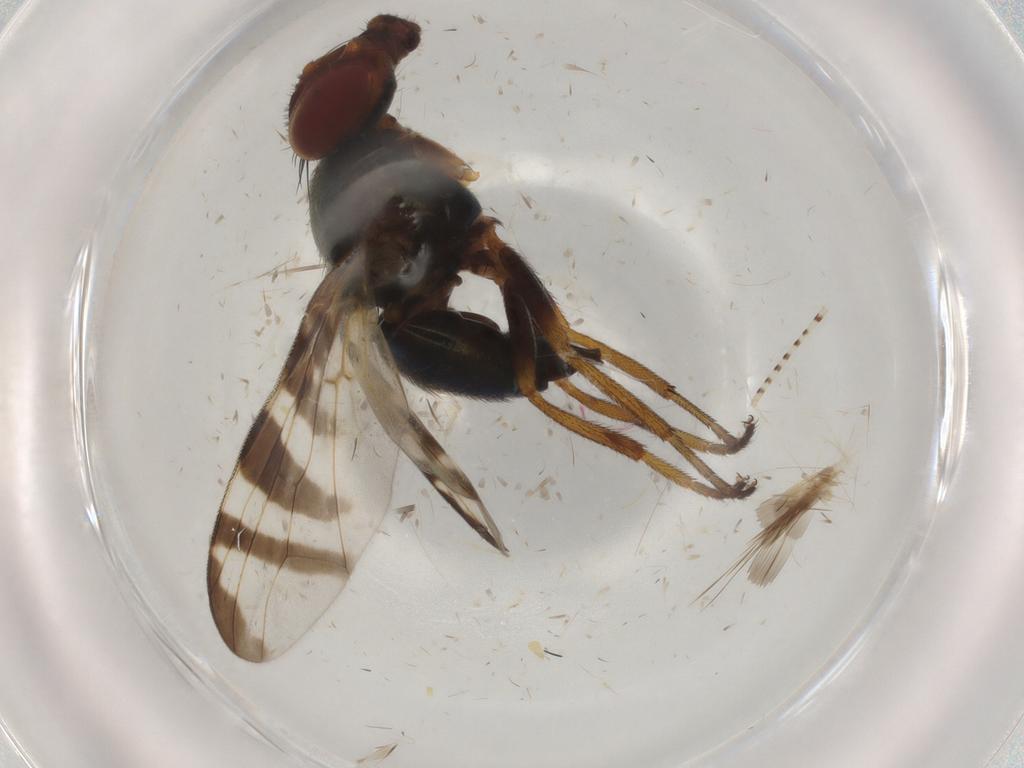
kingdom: Animalia
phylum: Arthropoda
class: Insecta
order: Diptera
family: Platystomatidae
